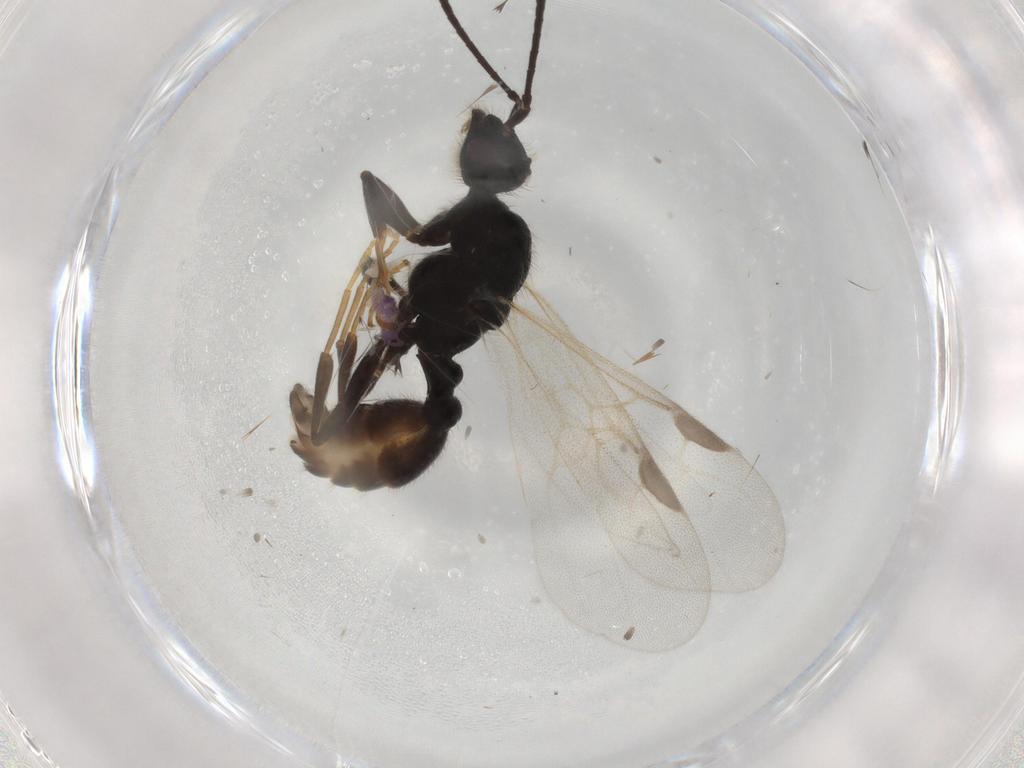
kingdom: Animalia
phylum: Arthropoda
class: Insecta
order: Hymenoptera
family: Formicidae
